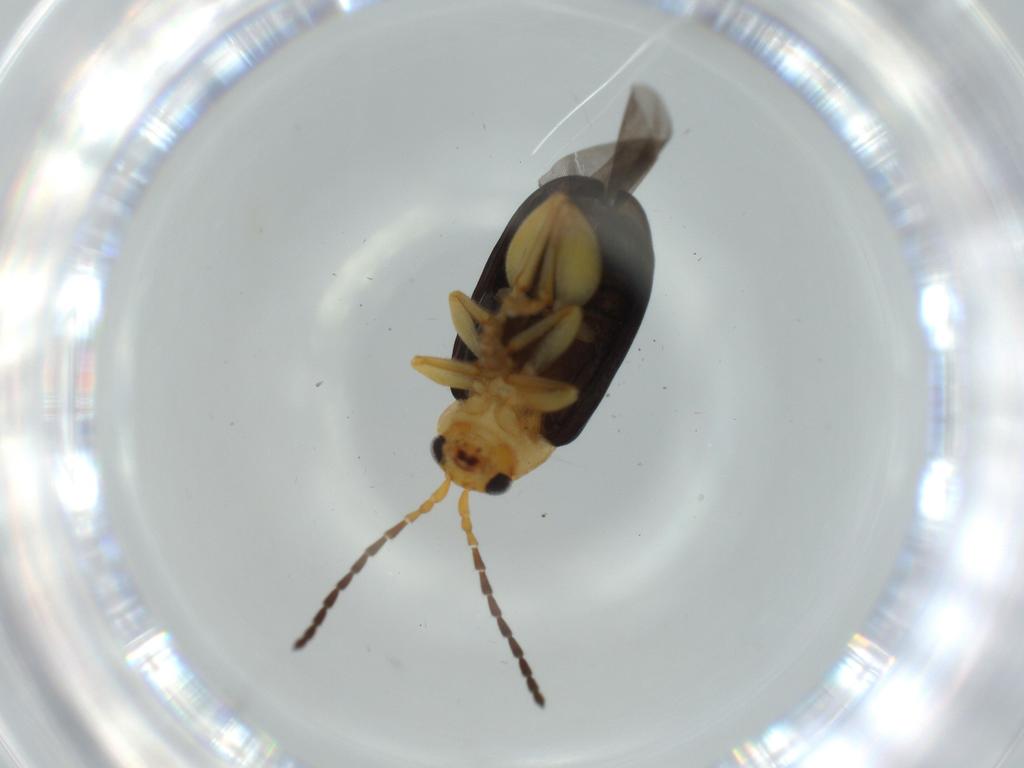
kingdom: Animalia
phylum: Arthropoda
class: Insecta
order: Coleoptera
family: Chrysomelidae
